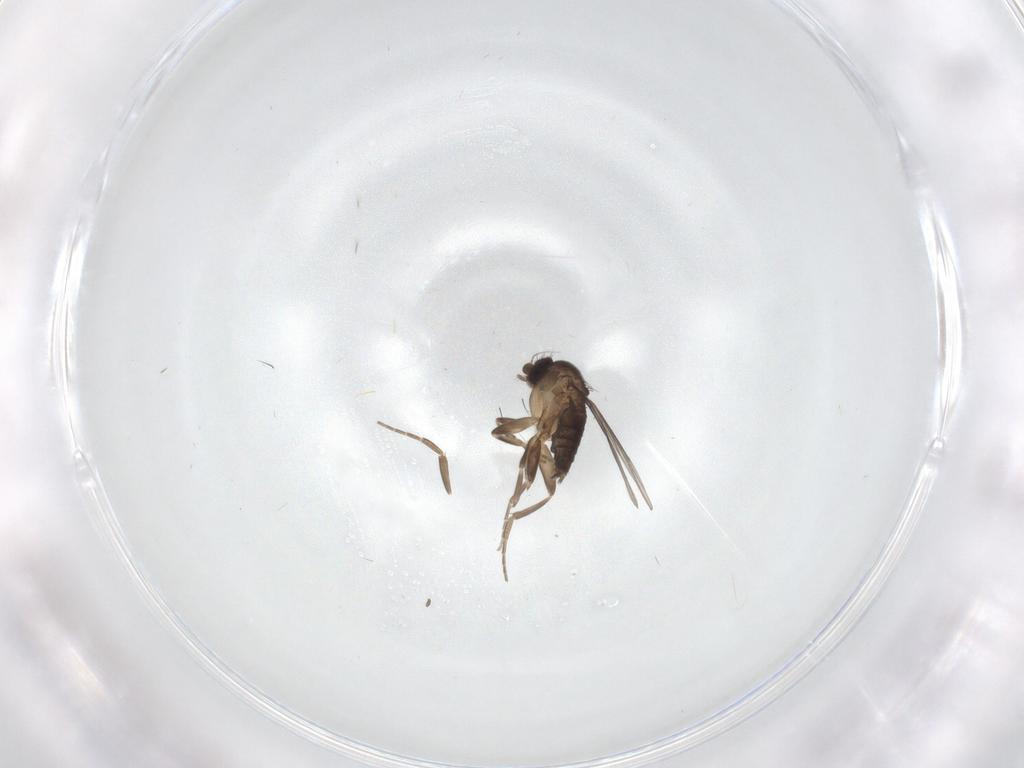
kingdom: Animalia
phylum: Arthropoda
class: Insecta
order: Diptera
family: Phoridae
